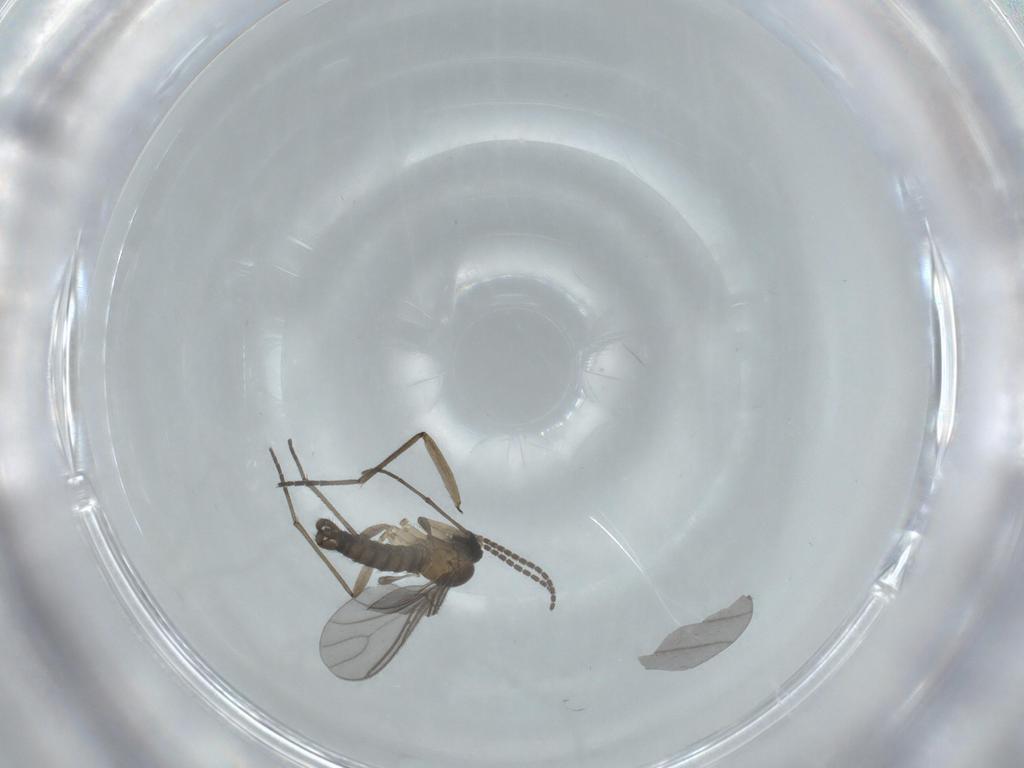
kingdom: Animalia
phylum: Arthropoda
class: Insecta
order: Diptera
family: Sciaridae
